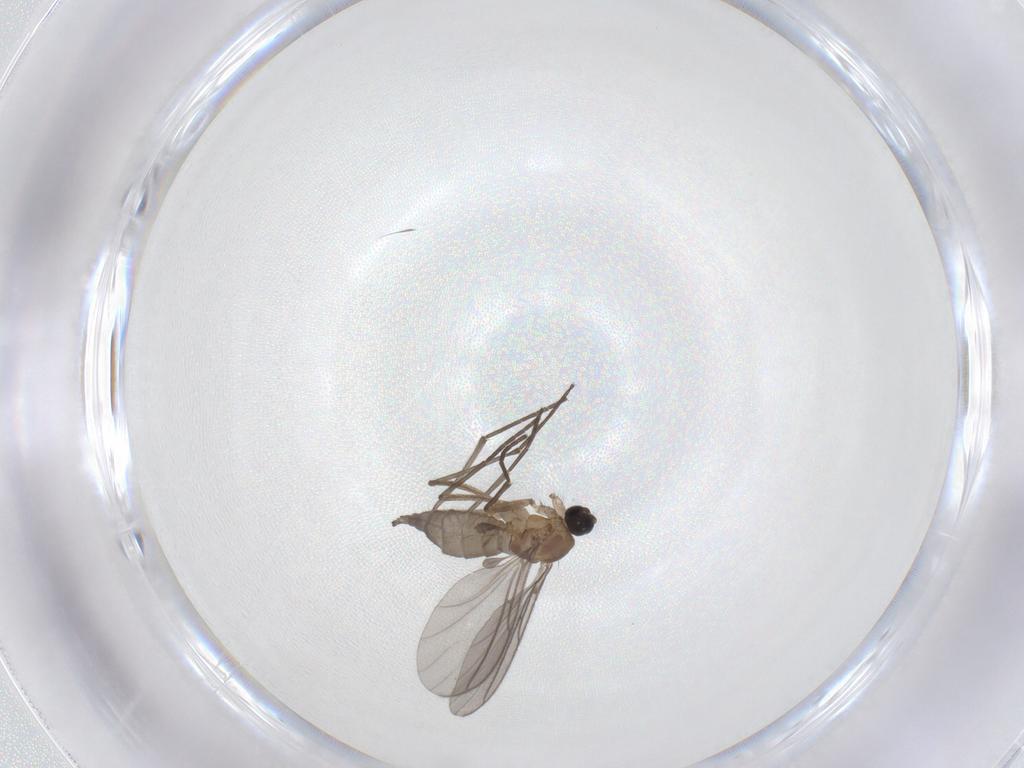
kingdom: Animalia
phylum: Arthropoda
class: Insecta
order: Diptera
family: Sciaridae
